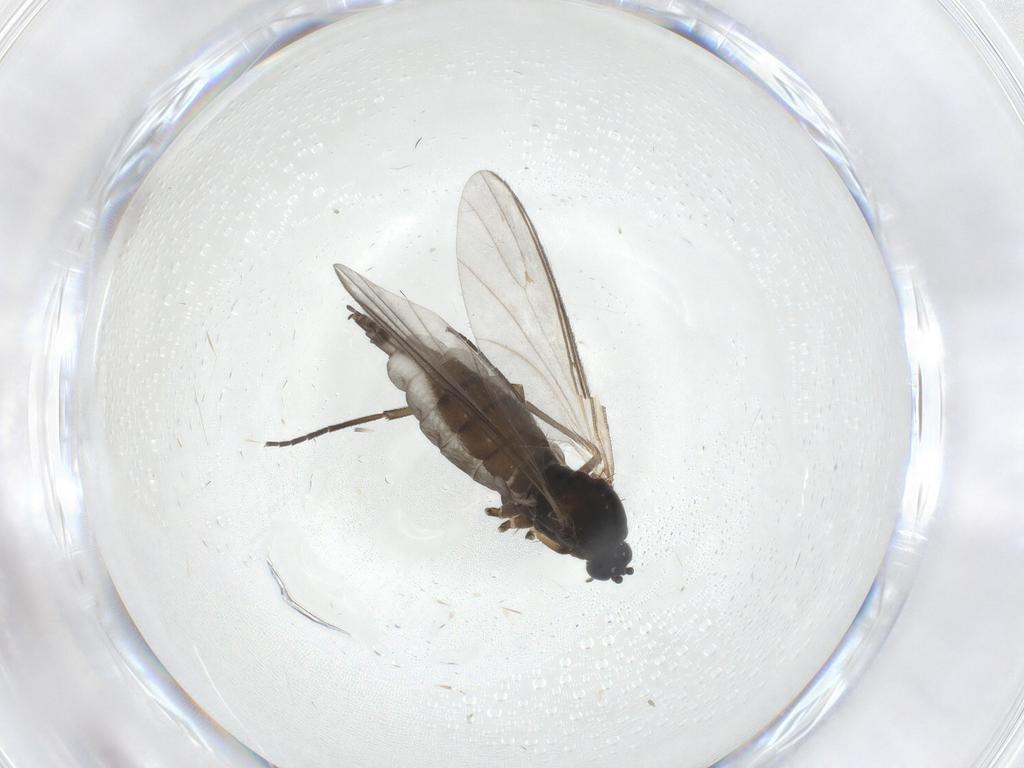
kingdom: Animalia
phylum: Arthropoda
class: Insecta
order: Diptera
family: Sciaridae
